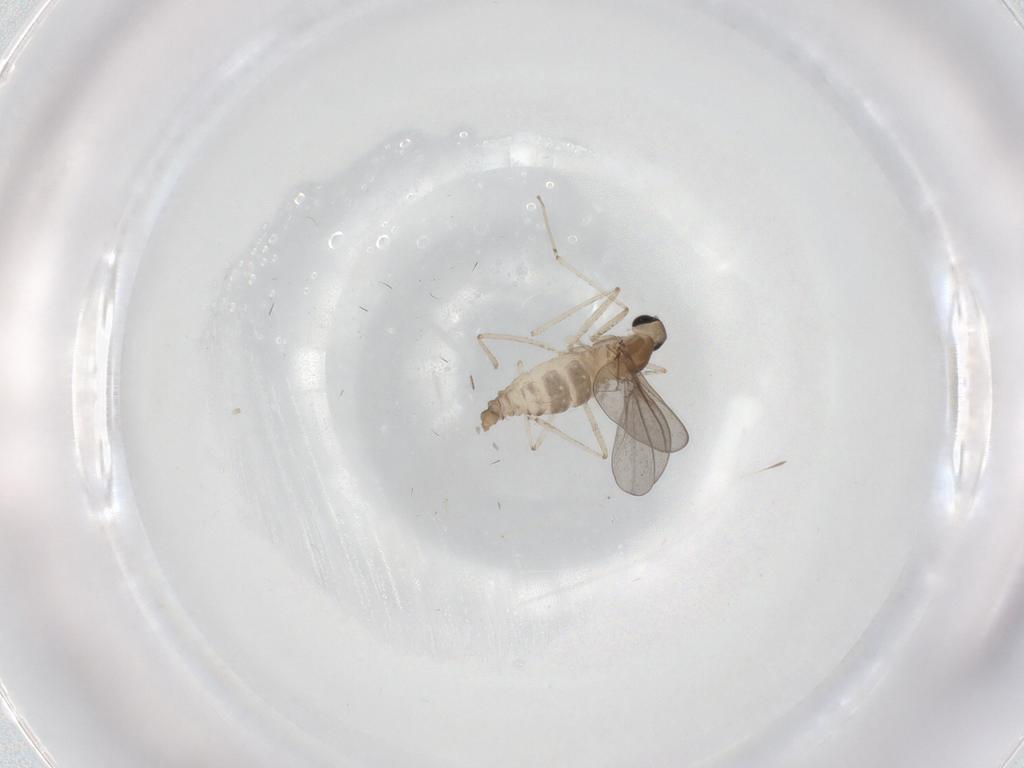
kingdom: Animalia
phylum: Arthropoda
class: Insecta
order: Diptera
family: Cecidomyiidae
